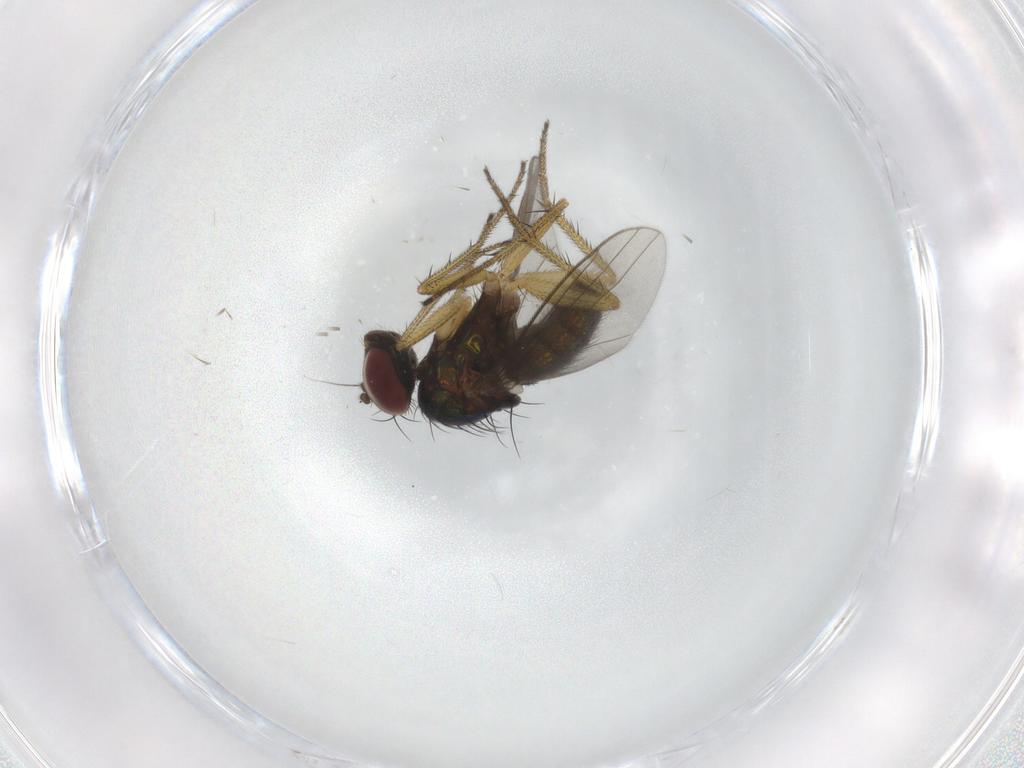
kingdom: Animalia
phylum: Arthropoda
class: Insecta
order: Diptera
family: Dolichopodidae
